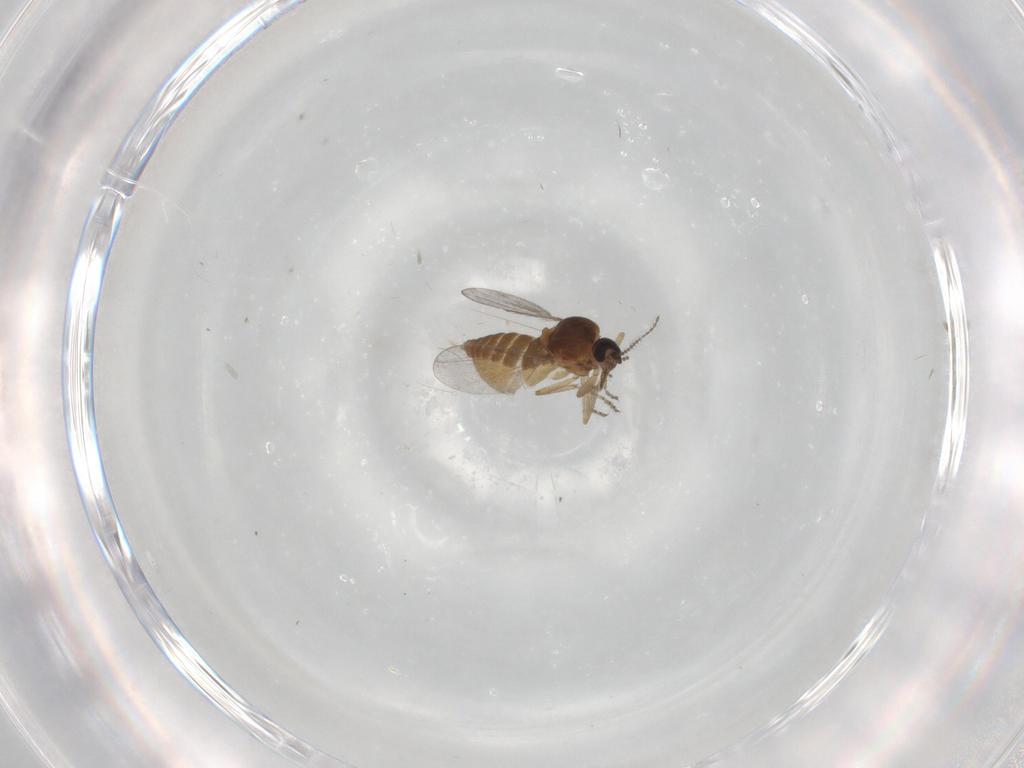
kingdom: Animalia
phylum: Arthropoda
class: Insecta
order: Diptera
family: Ceratopogonidae
